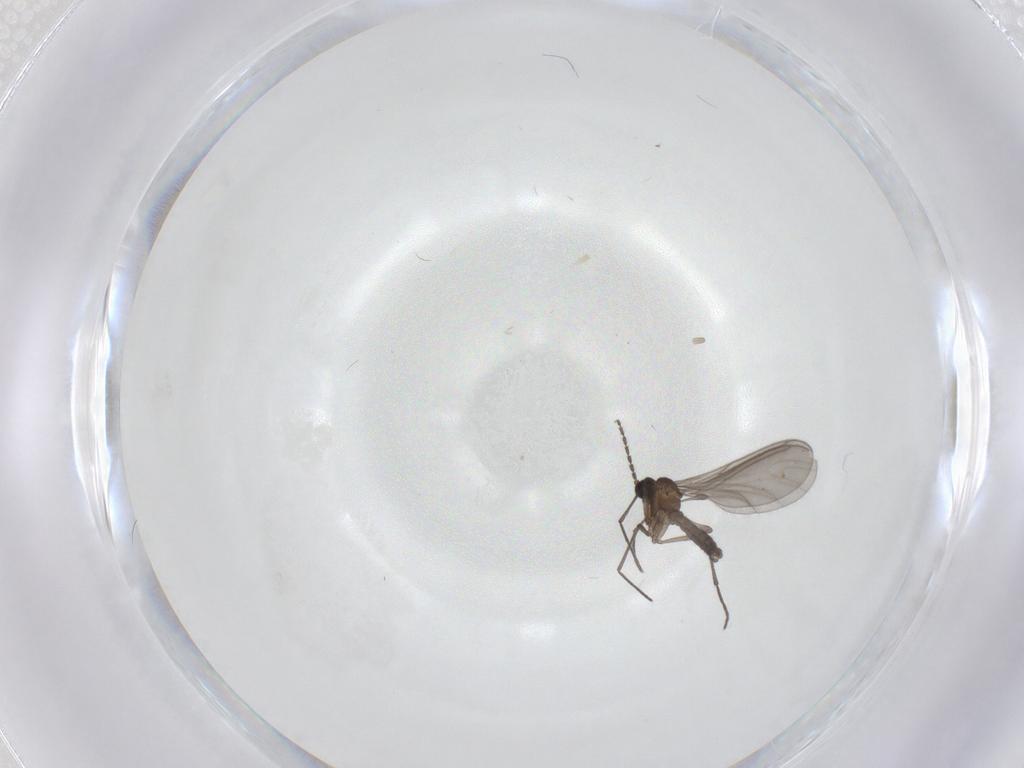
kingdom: Animalia
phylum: Arthropoda
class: Insecta
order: Diptera
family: Sciaridae
